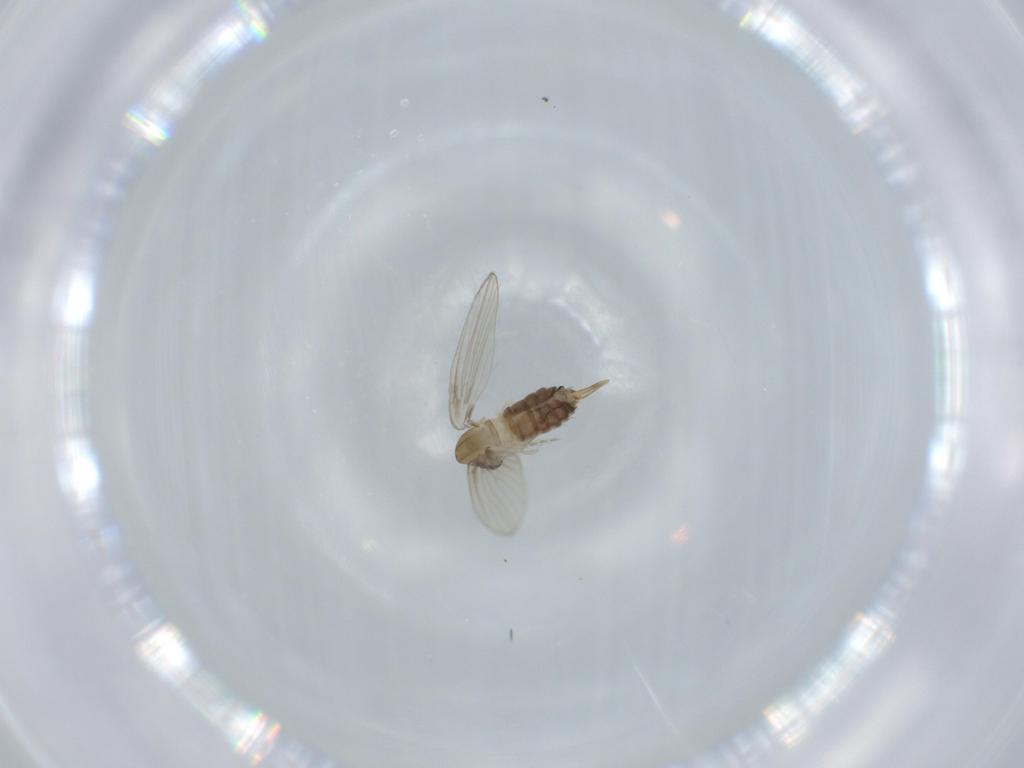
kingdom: Animalia
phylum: Arthropoda
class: Insecta
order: Diptera
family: Psychodidae
